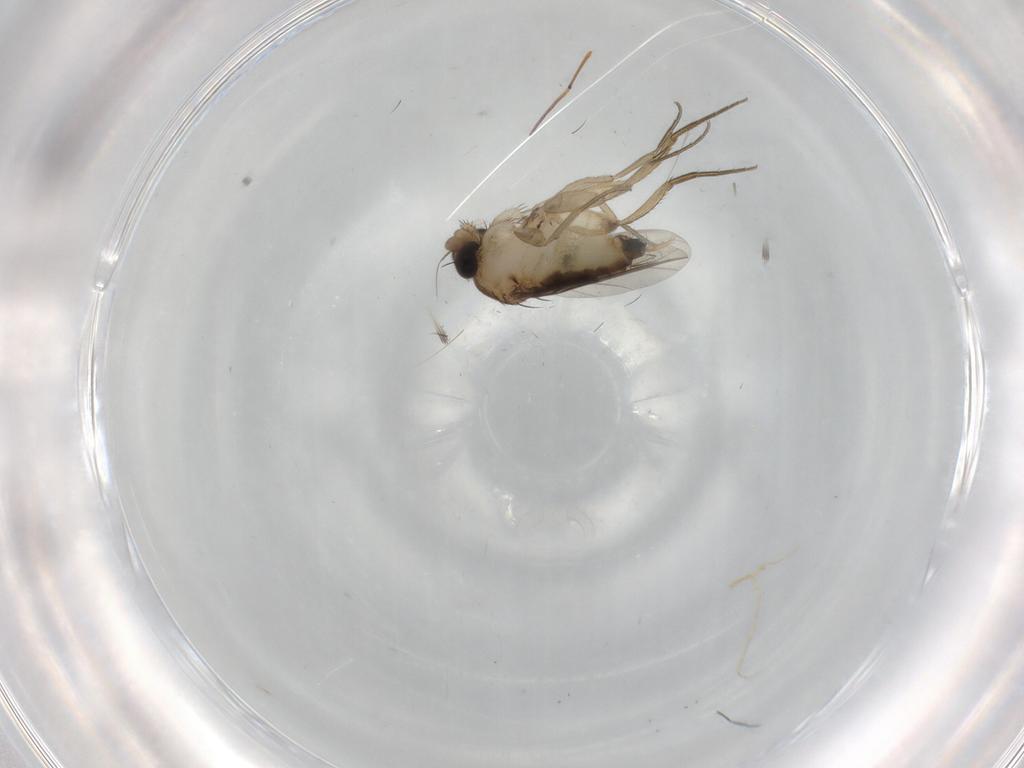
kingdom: Animalia
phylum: Arthropoda
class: Insecta
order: Diptera
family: Phoridae
